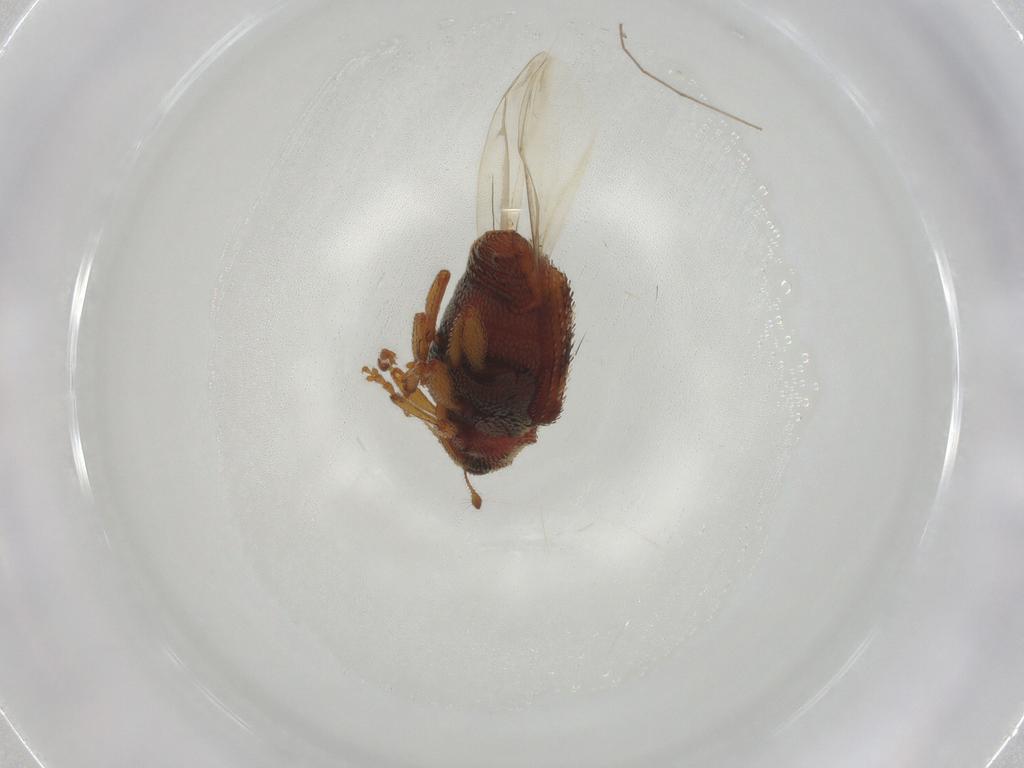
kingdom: Animalia
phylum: Arthropoda
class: Insecta
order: Coleoptera
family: Curculionidae
